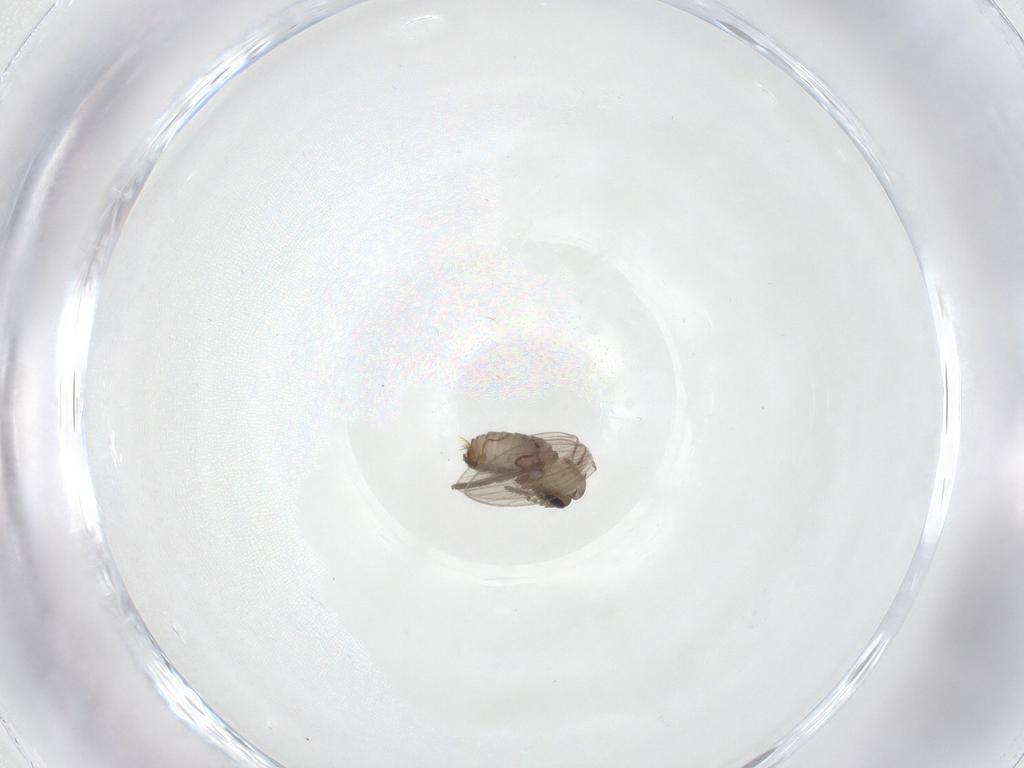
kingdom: Animalia
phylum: Arthropoda
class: Insecta
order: Diptera
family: Psychodidae
